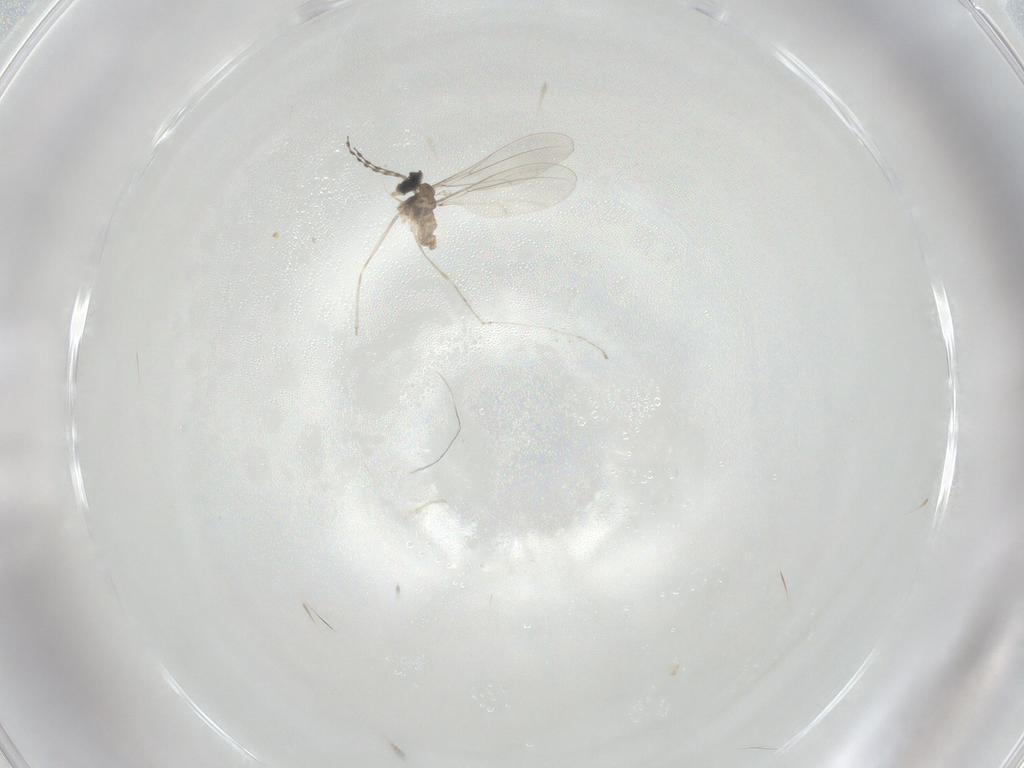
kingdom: Animalia
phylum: Arthropoda
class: Insecta
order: Diptera
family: Cecidomyiidae
